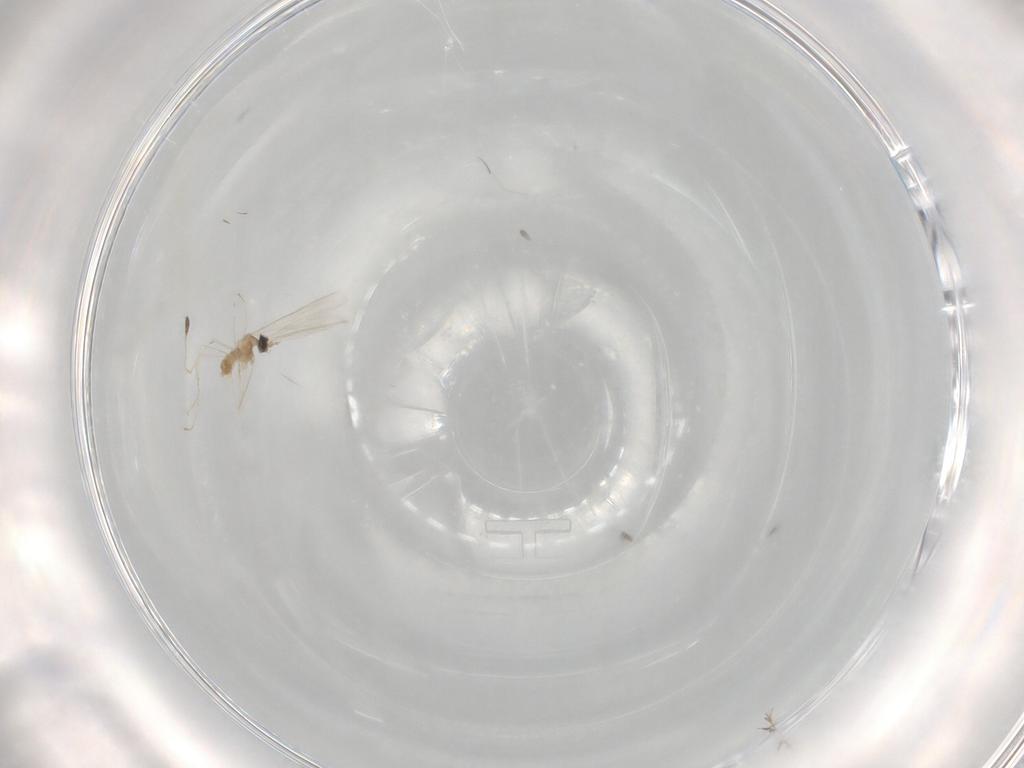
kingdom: Animalia
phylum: Arthropoda
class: Insecta
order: Diptera
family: Cecidomyiidae
